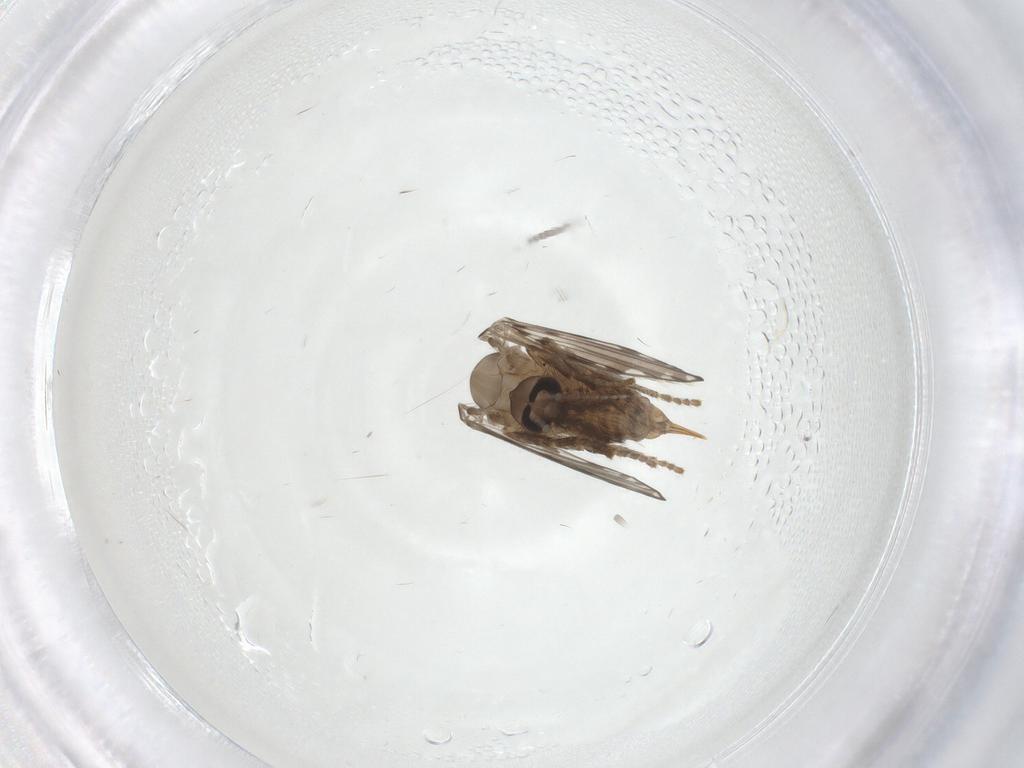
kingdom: Animalia
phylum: Arthropoda
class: Insecta
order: Diptera
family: Psychodidae
